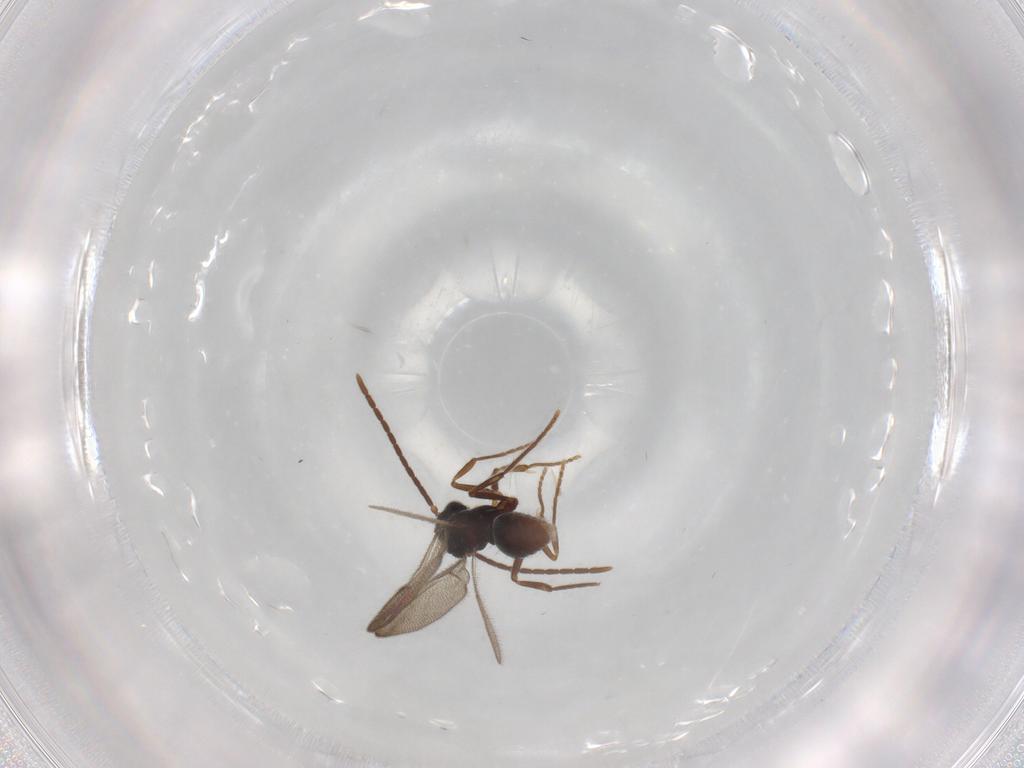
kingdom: Animalia
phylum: Arthropoda
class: Insecta
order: Hymenoptera
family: Formicidae
